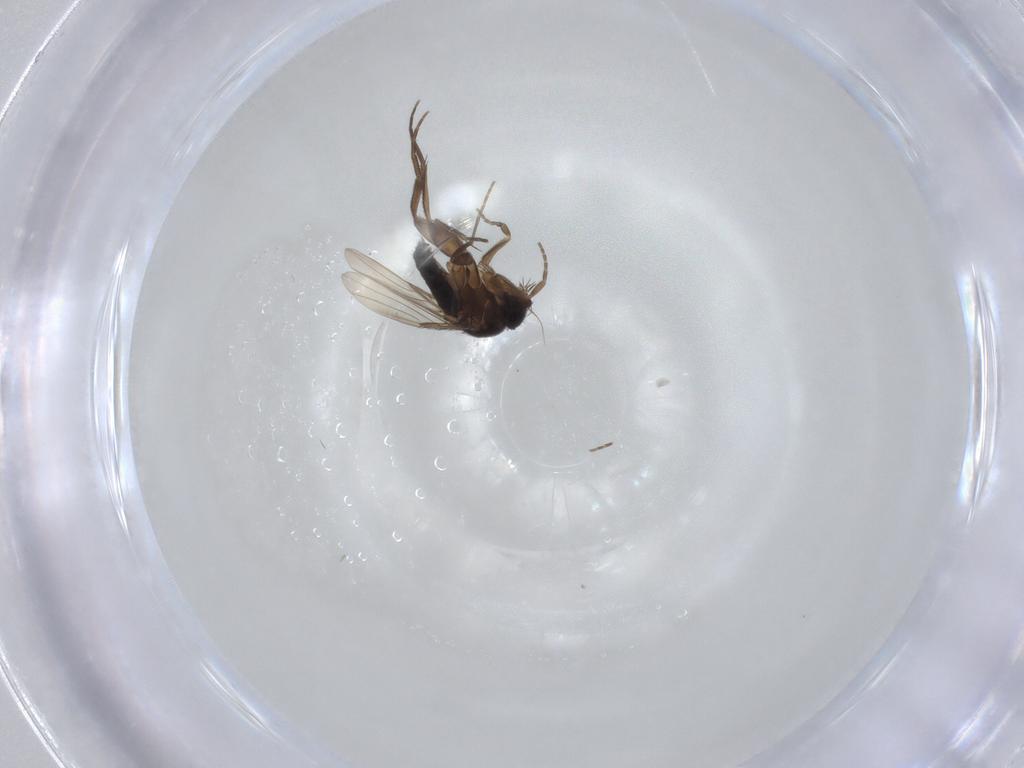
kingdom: Animalia
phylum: Arthropoda
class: Insecta
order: Diptera
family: Phoridae
